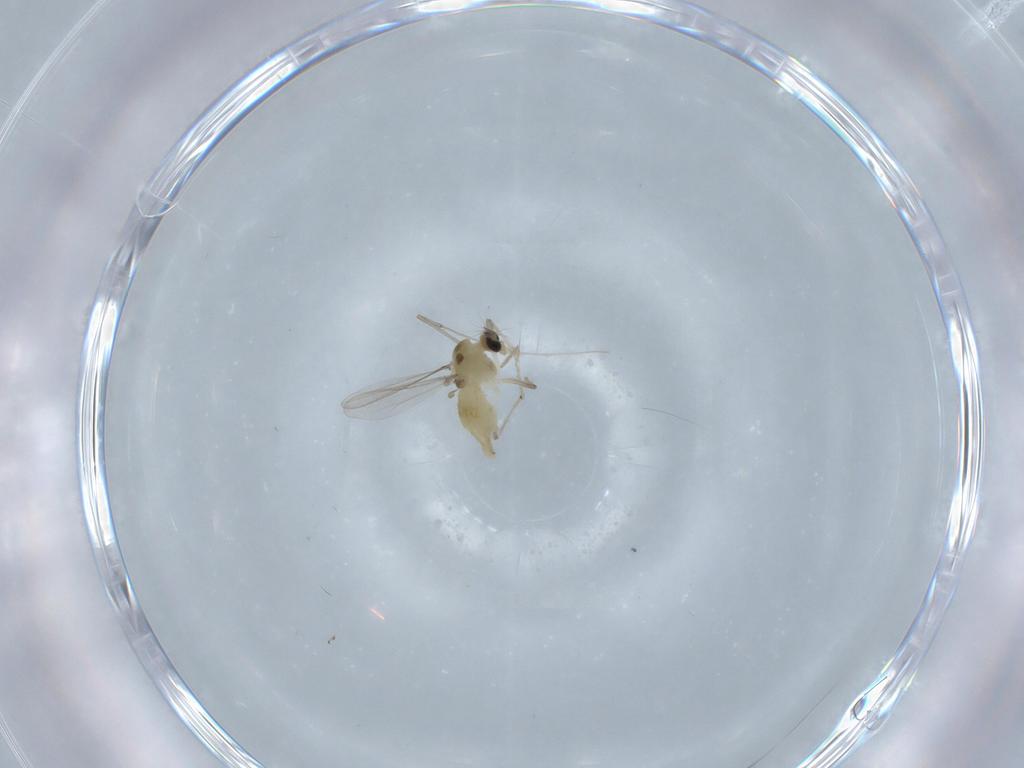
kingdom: Animalia
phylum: Arthropoda
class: Insecta
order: Diptera
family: Chironomidae
